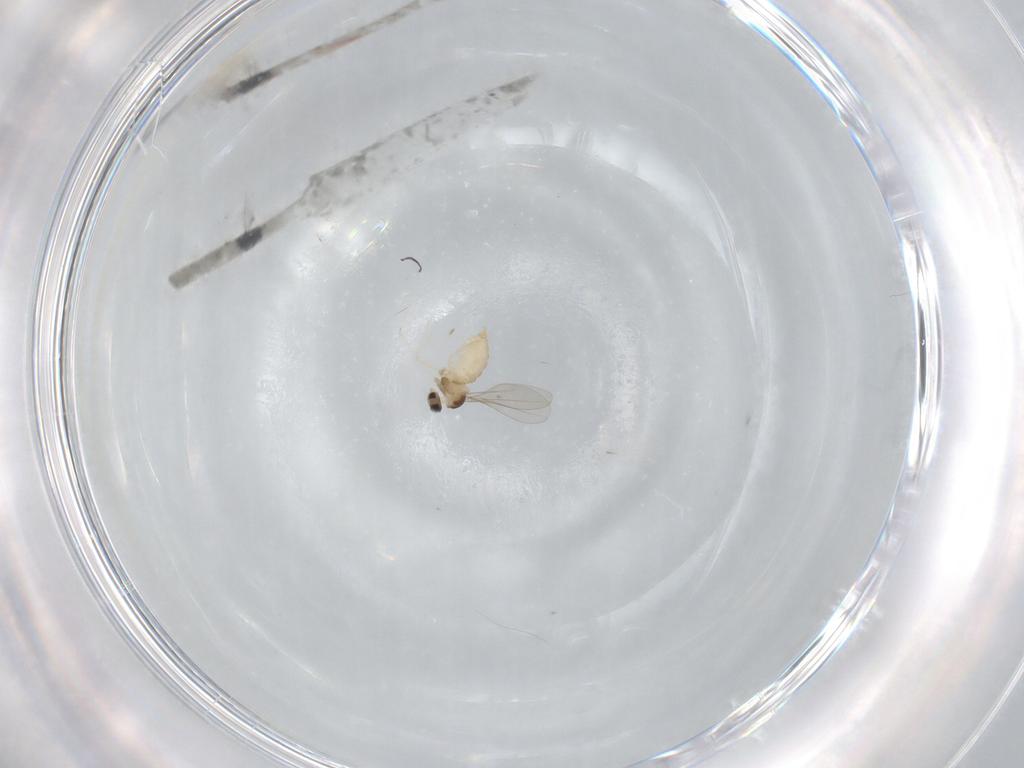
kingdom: Animalia
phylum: Arthropoda
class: Insecta
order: Diptera
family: Cecidomyiidae
